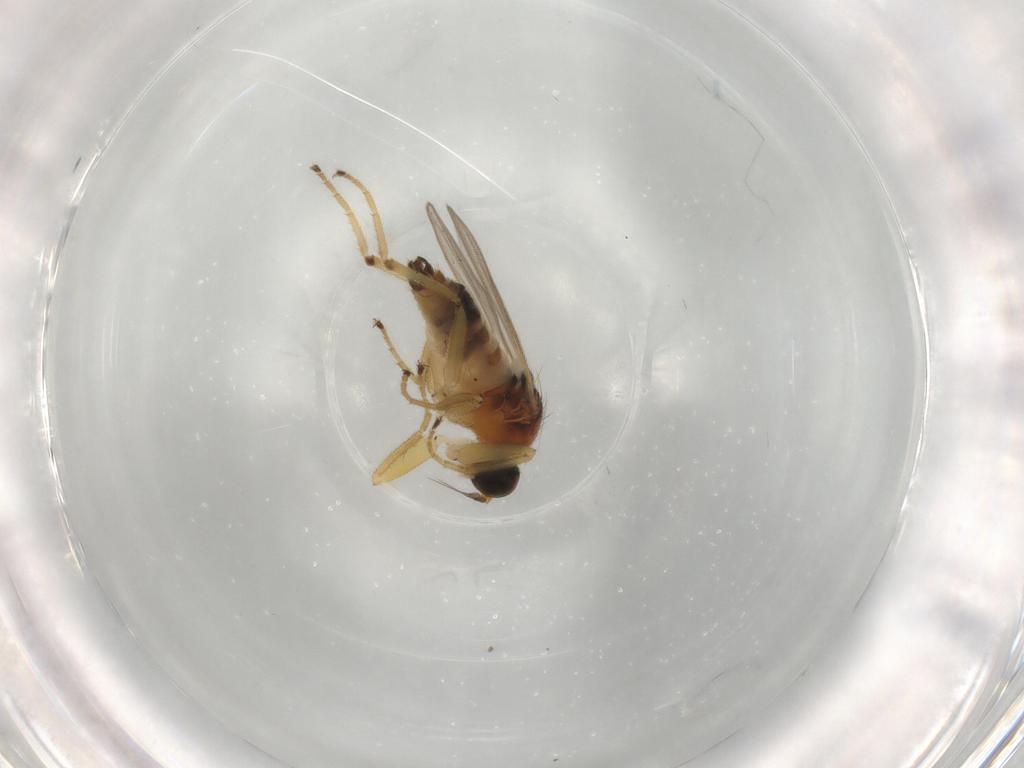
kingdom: Animalia
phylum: Arthropoda
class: Insecta
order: Diptera
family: Hybotidae
